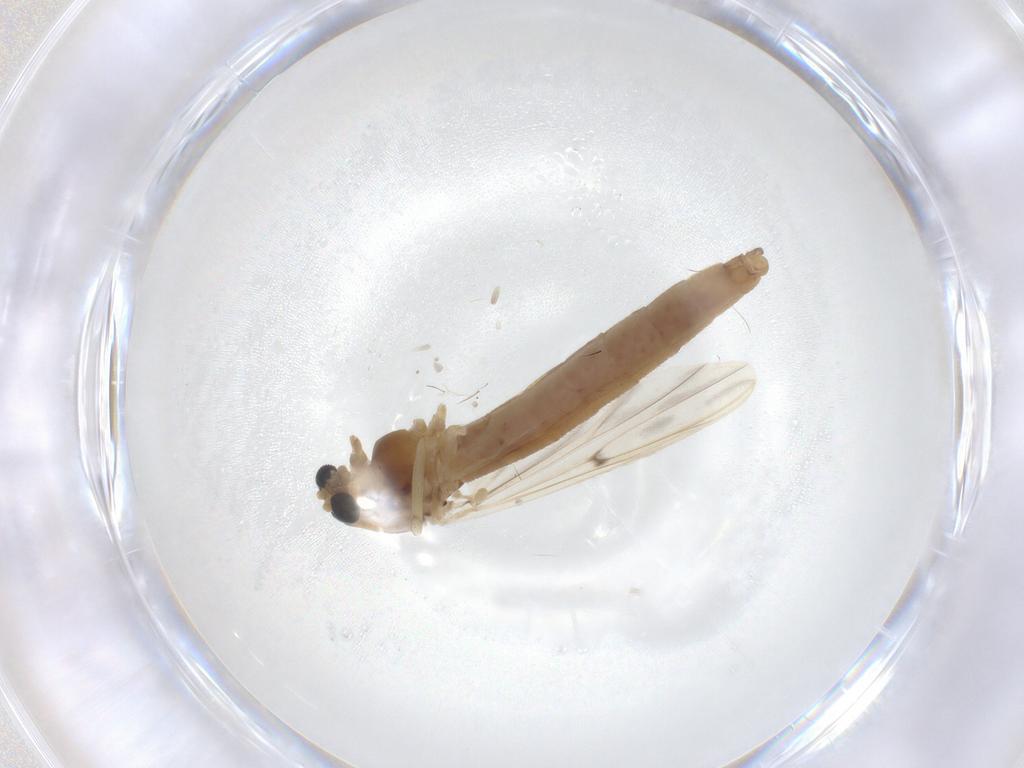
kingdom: Animalia
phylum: Arthropoda
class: Insecta
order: Diptera
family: Chironomidae
